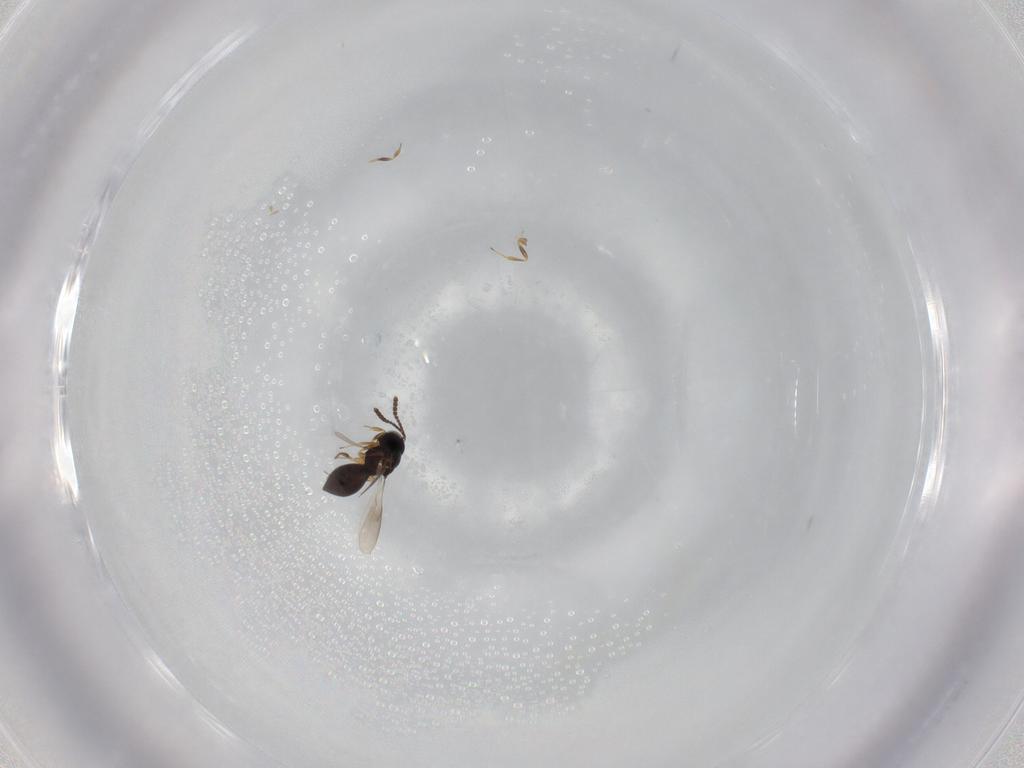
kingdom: Animalia
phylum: Arthropoda
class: Insecta
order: Hymenoptera
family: Scelionidae
